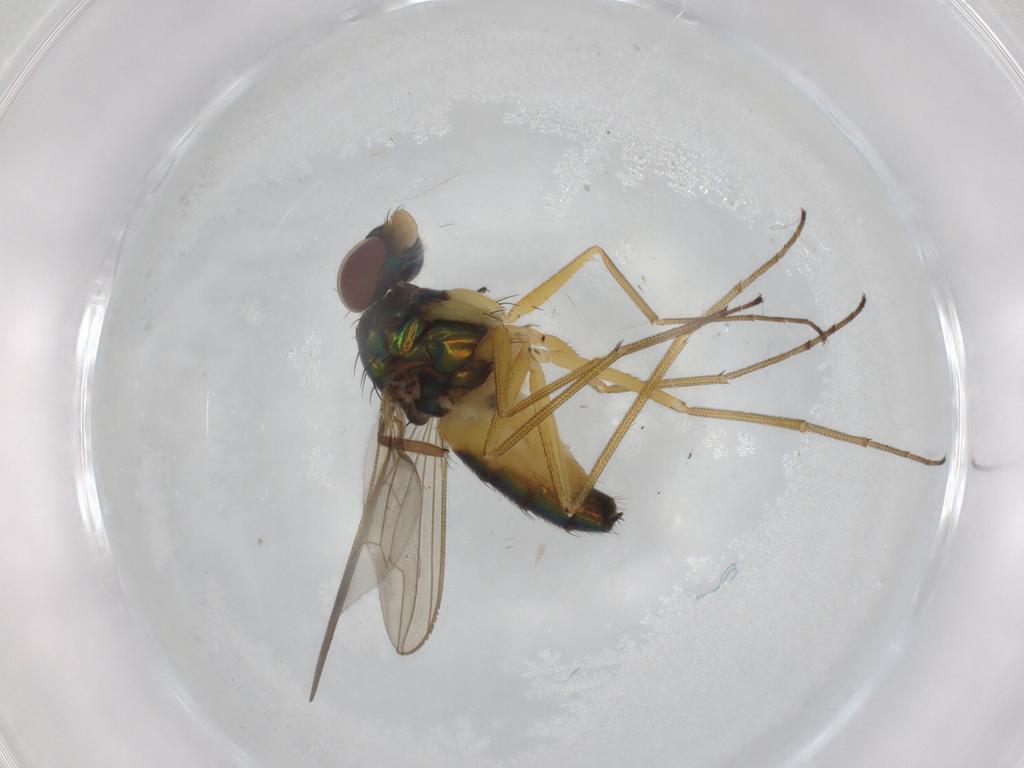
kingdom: Animalia
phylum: Arthropoda
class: Insecta
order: Diptera
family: Dolichopodidae
